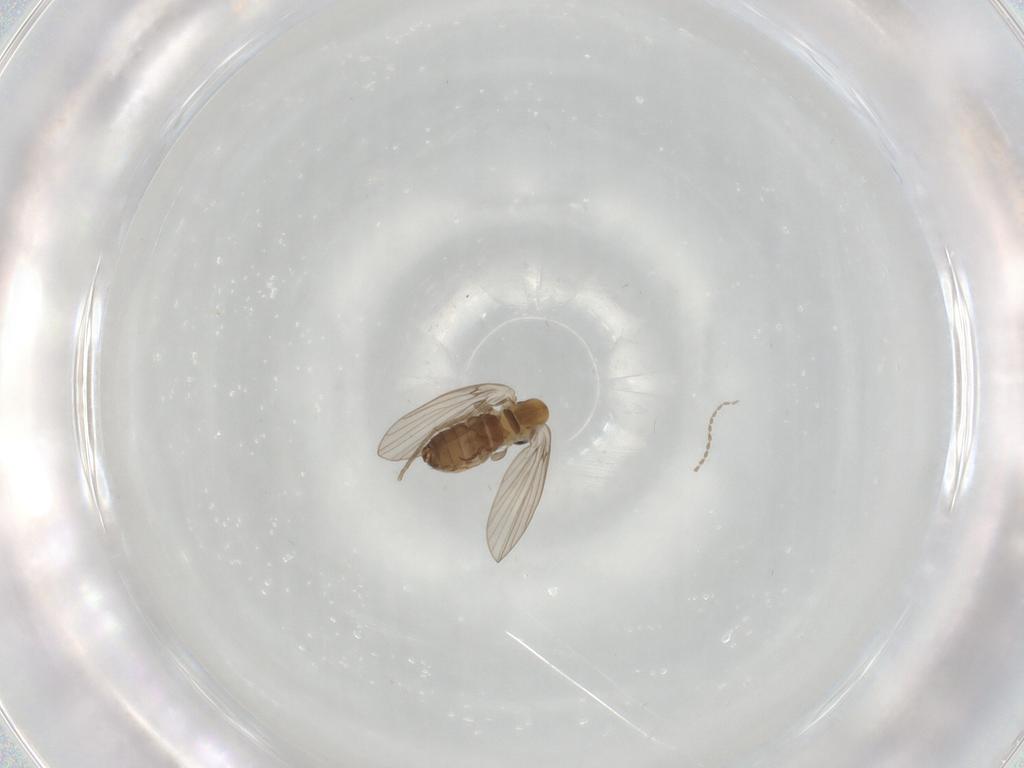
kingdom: Animalia
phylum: Arthropoda
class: Insecta
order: Diptera
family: Psychodidae
